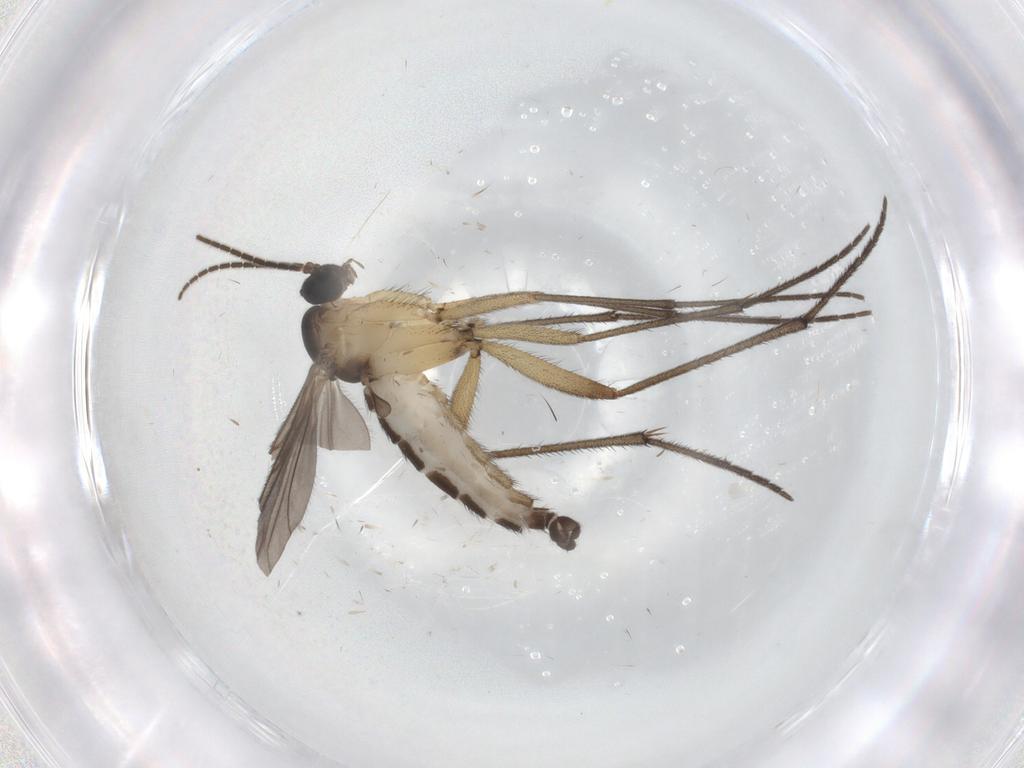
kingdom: Animalia
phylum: Arthropoda
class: Insecta
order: Diptera
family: Sciaridae
